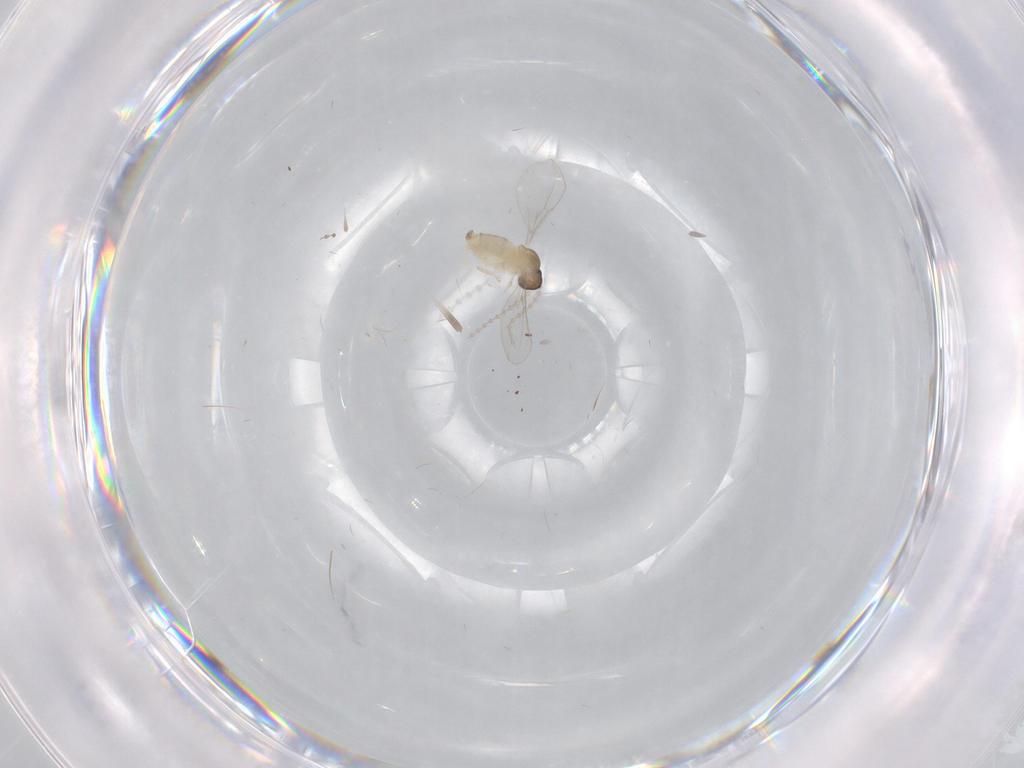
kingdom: Animalia
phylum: Arthropoda
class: Insecta
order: Diptera
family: Cecidomyiidae
